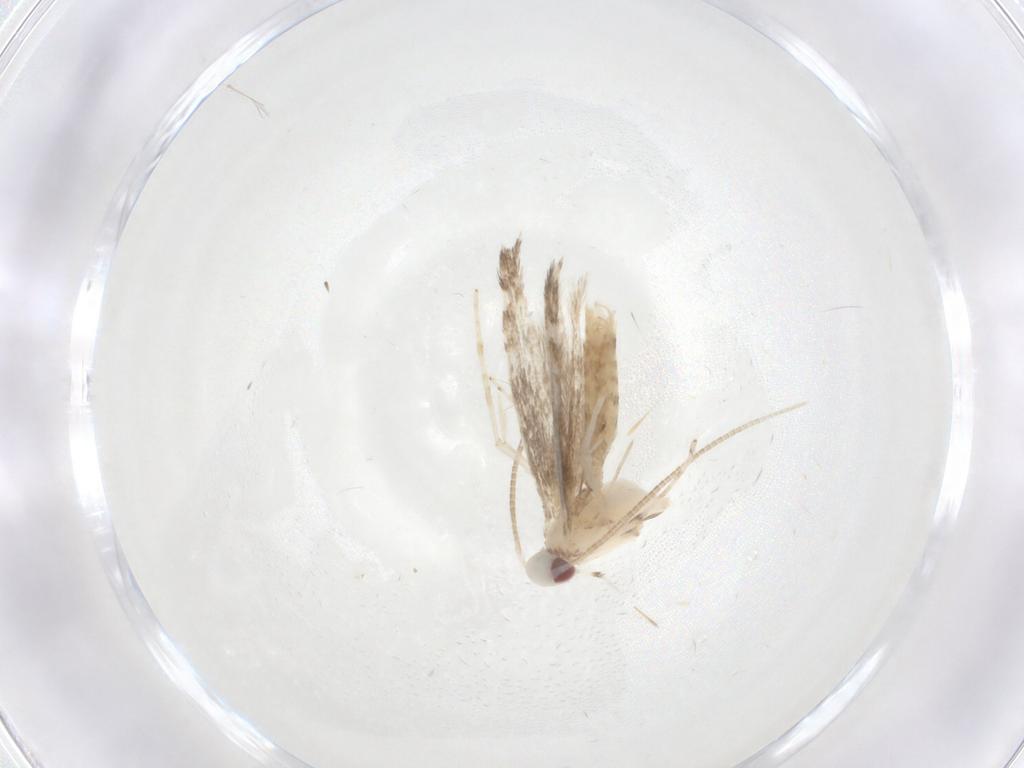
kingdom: Animalia
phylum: Arthropoda
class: Insecta
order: Lepidoptera
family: Gracillariidae
